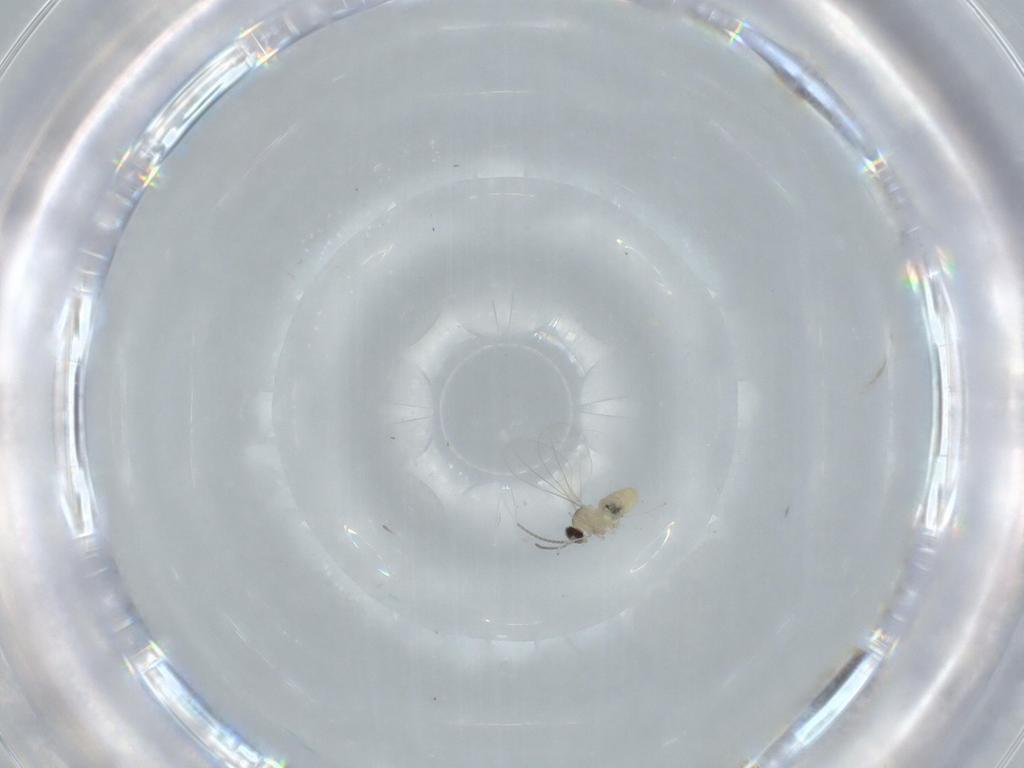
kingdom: Animalia
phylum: Arthropoda
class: Insecta
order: Diptera
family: Cecidomyiidae
